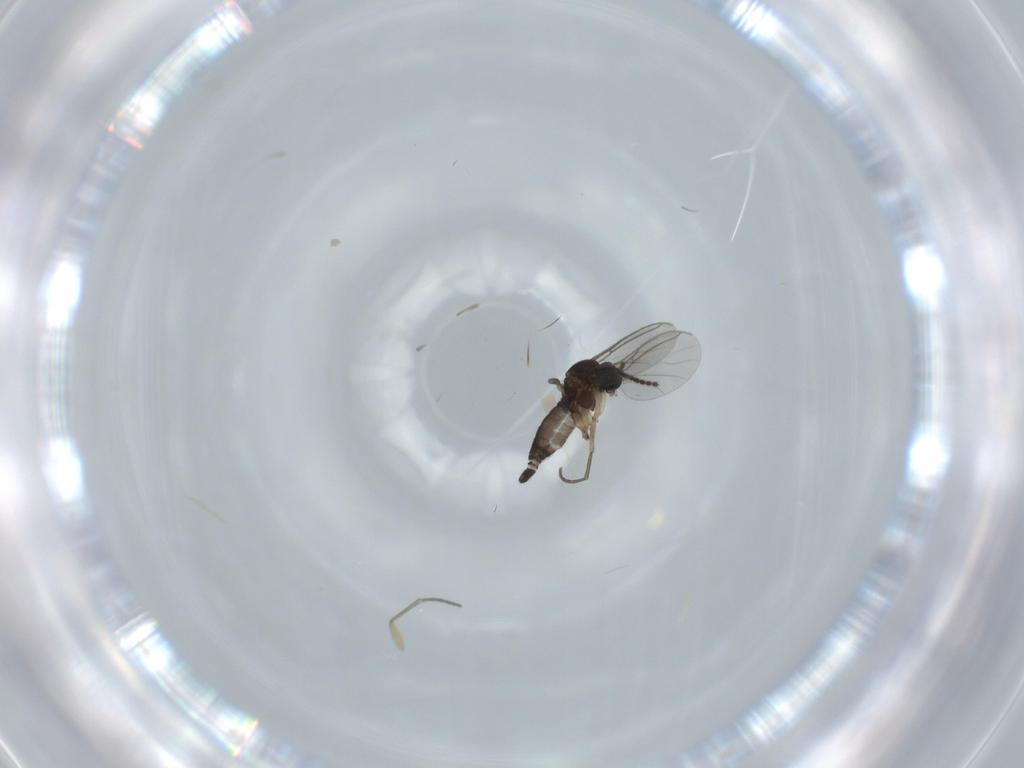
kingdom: Animalia
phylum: Arthropoda
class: Insecta
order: Diptera
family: Sciaridae
